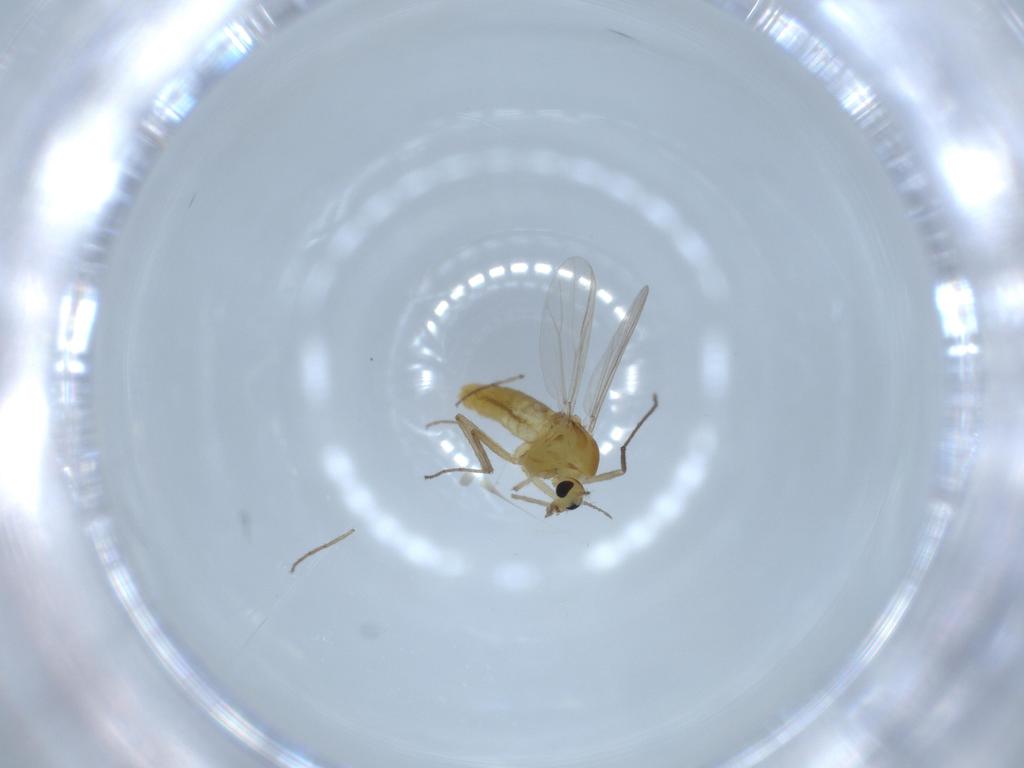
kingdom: Animalia
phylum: Arthropoda
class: Insecta
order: Diptera
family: Chironomidae
